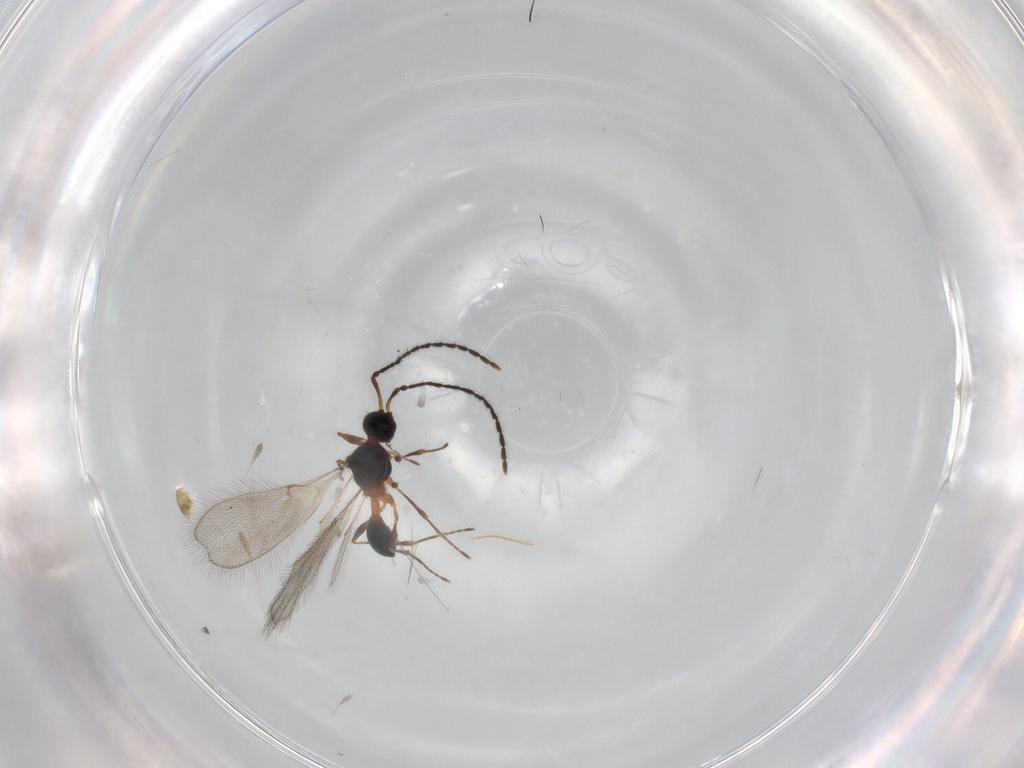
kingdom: Animalia
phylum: Arthropoda
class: Insecta
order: Hymenoptera
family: Diapriidae
